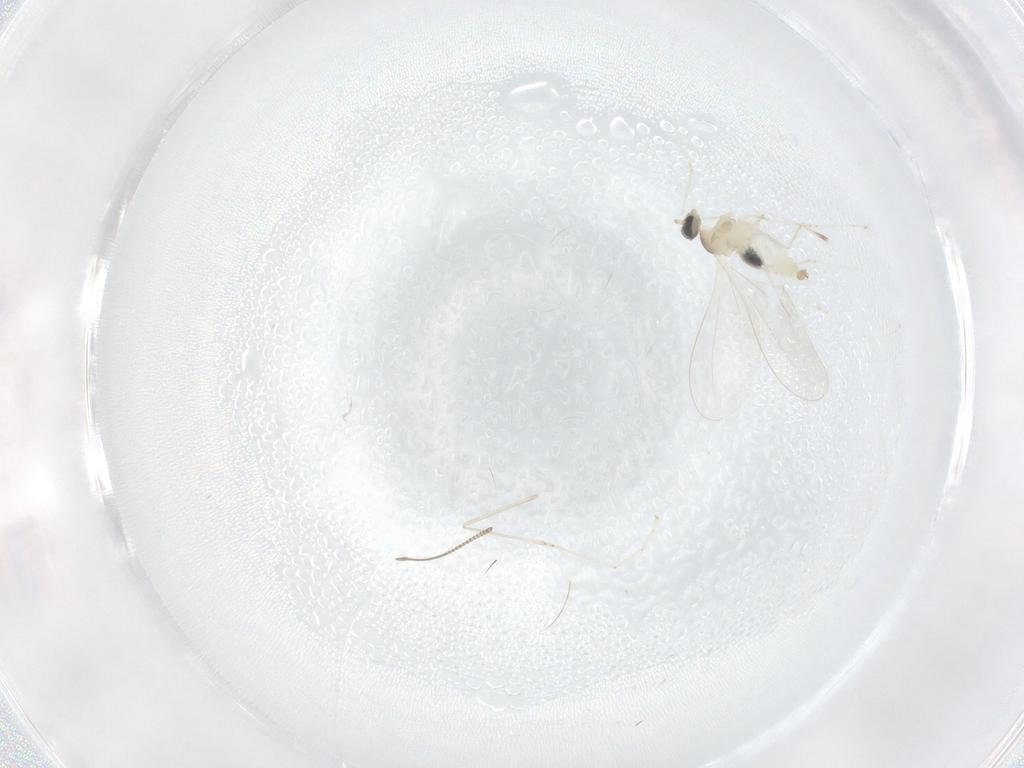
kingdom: Animalia
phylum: Arthropoda
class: Insecta
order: Diptera
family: Chironomidae
